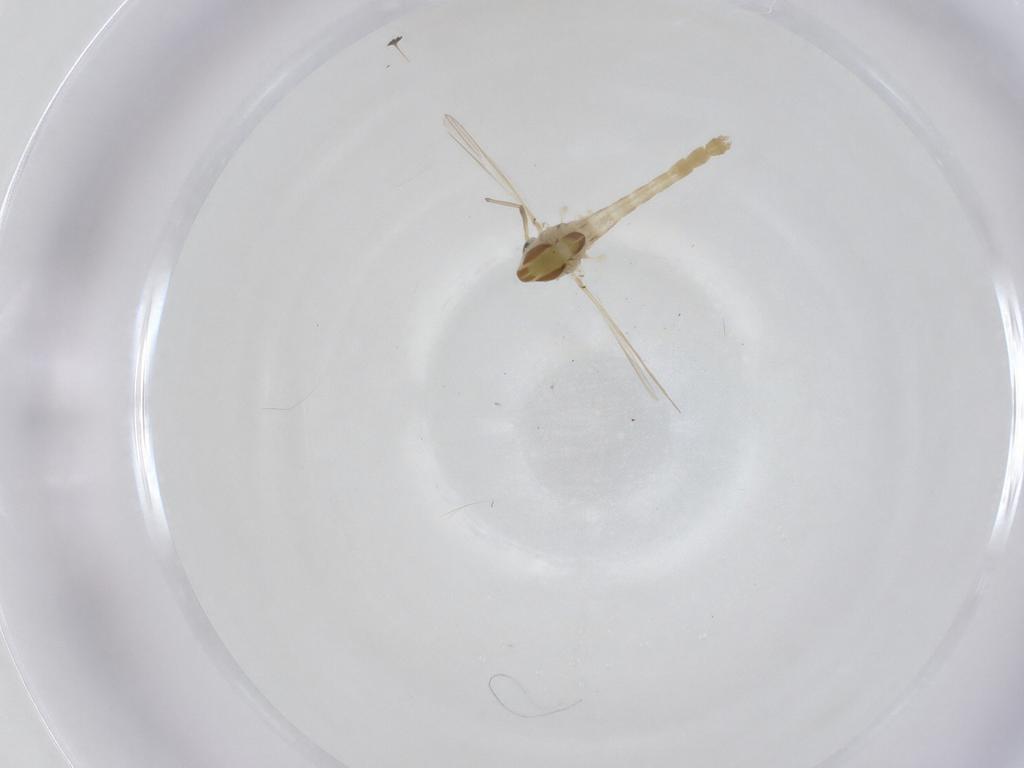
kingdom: Animalia
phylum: Arthropoda
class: Insecta
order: Diptera
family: Chironomidae
